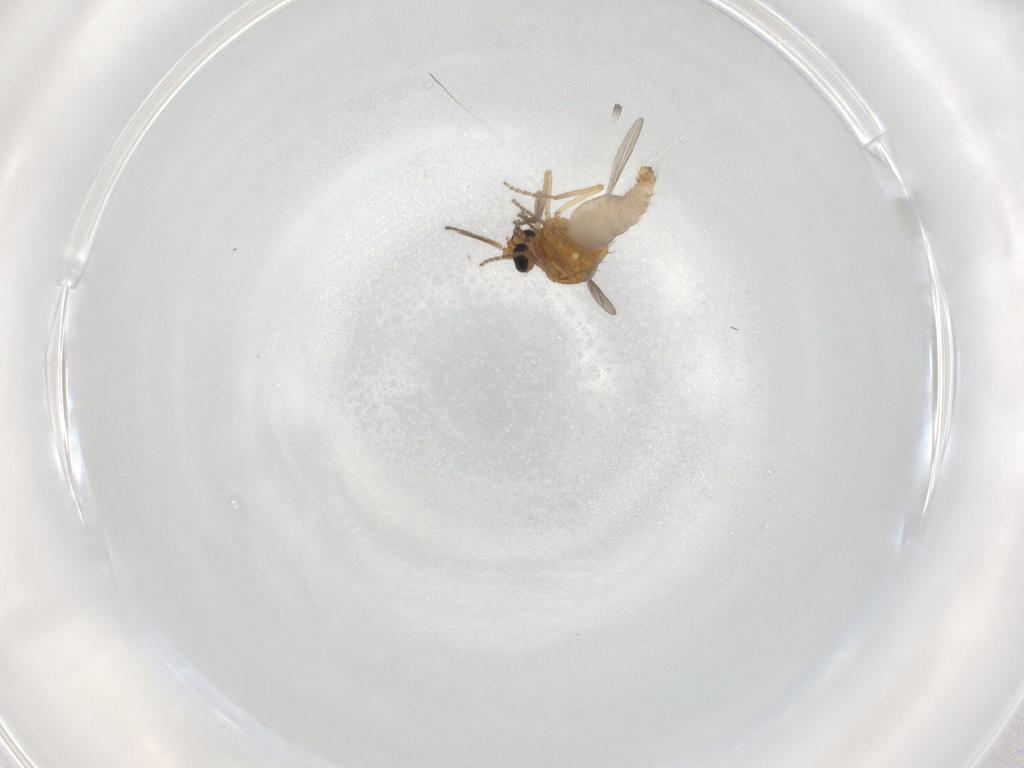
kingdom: Animalia
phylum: Arthropoda
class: Insecta
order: Diptera
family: Ceratopogonidae
